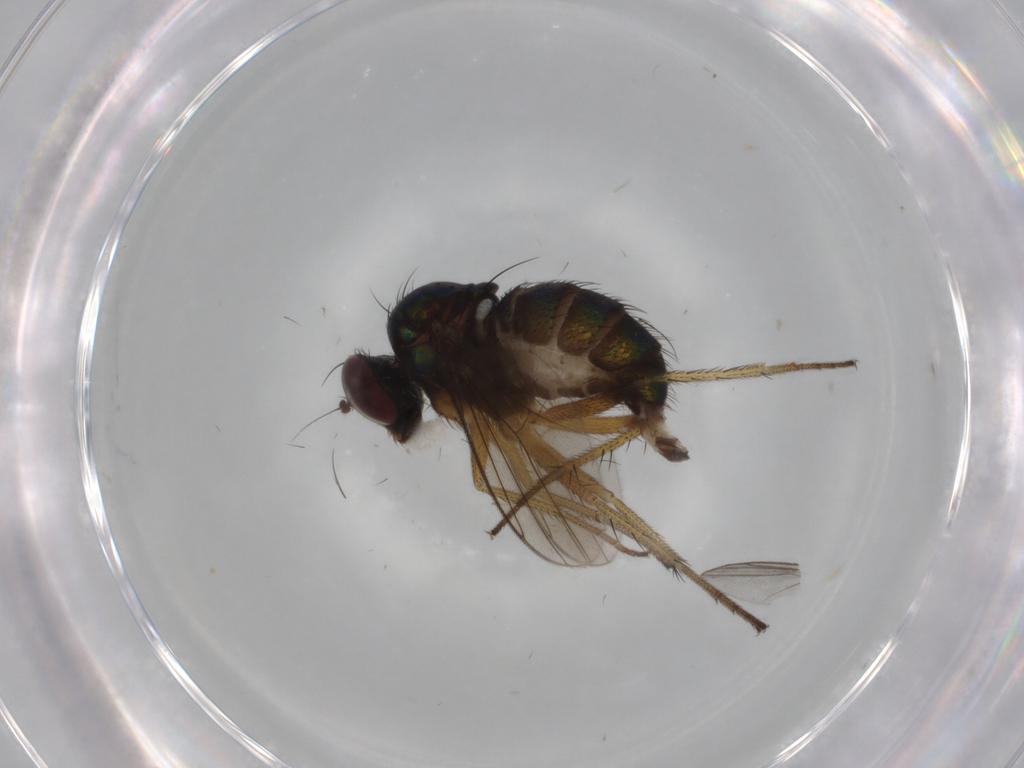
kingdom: Animalia
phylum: Arthropoda
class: Insecta
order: Diptera
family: Dolichopodidae
